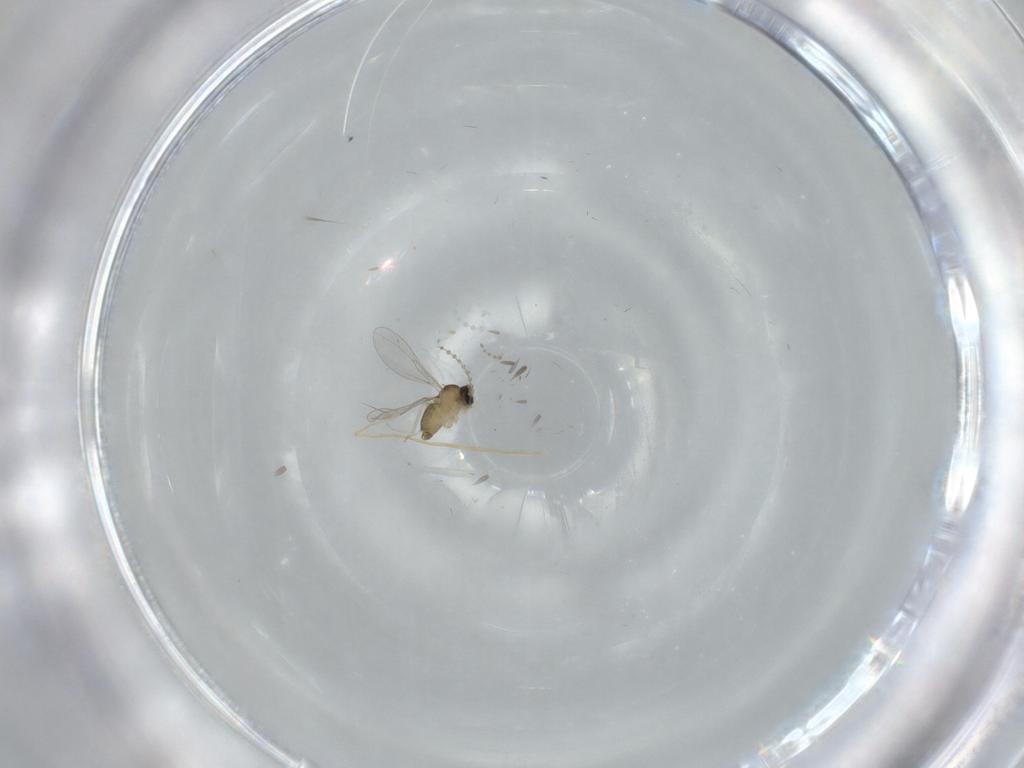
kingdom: Animalia
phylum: Arthropoda
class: Insecta
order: Diptera
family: Cecidomyiidae
